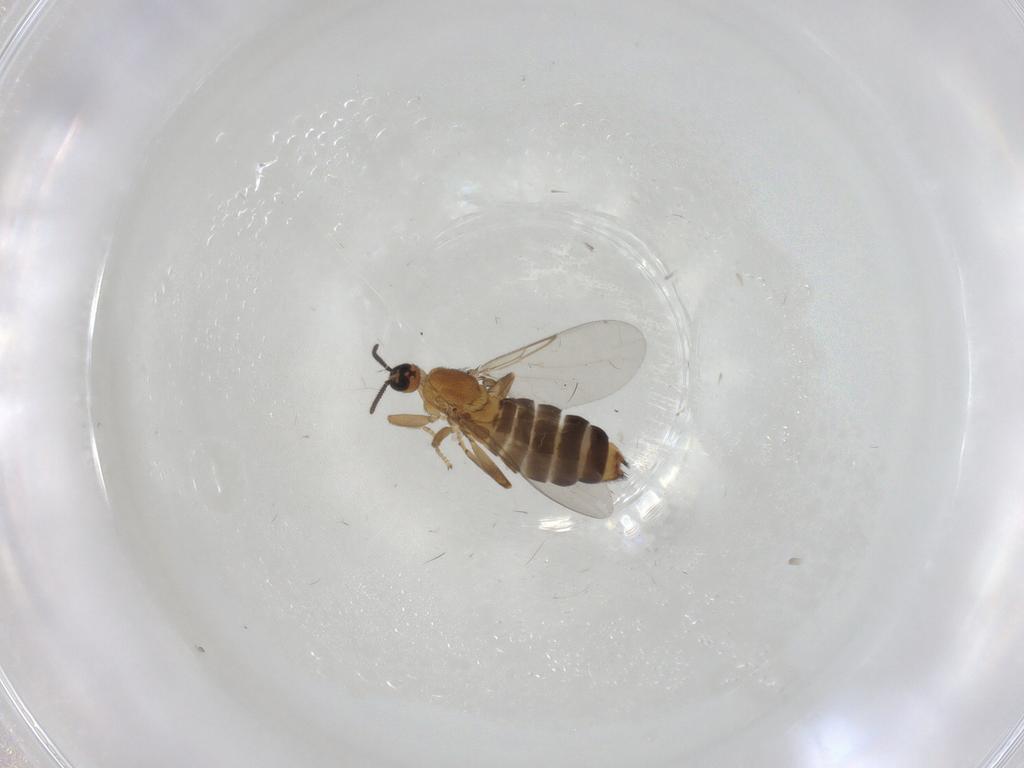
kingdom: Animalia
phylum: Arthropoda
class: Insecta
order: Diptera
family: Scatopsidae
